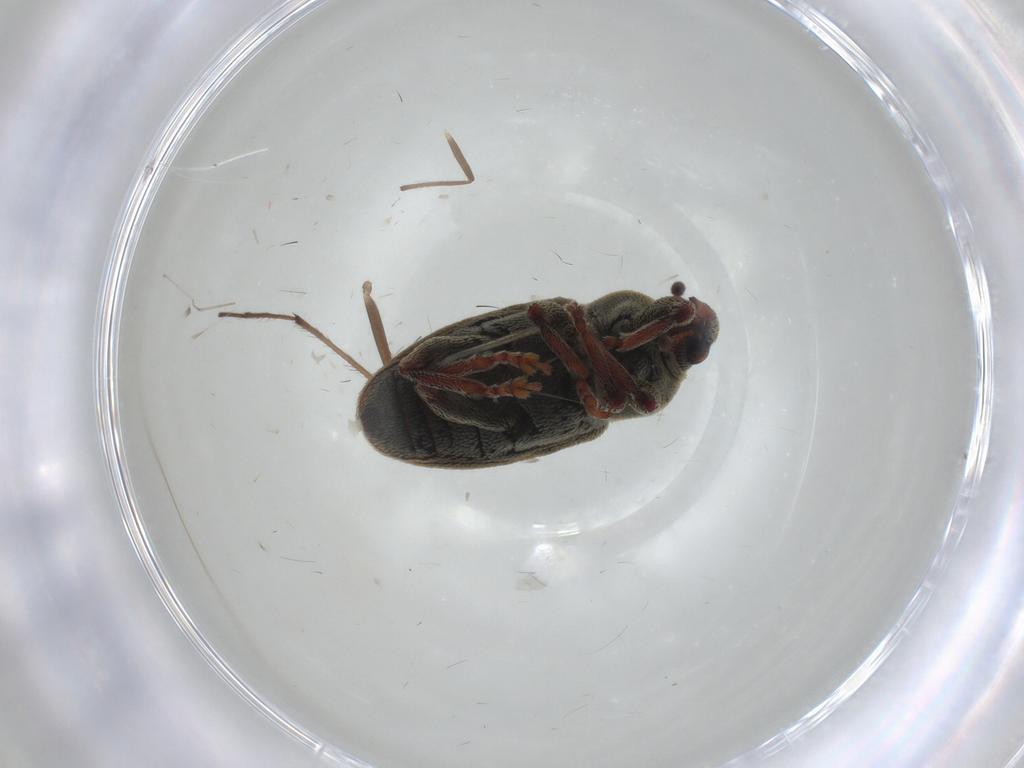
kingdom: Animalia
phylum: Arthropoda
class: Insecta
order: Coleoptera
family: Curculionidae
